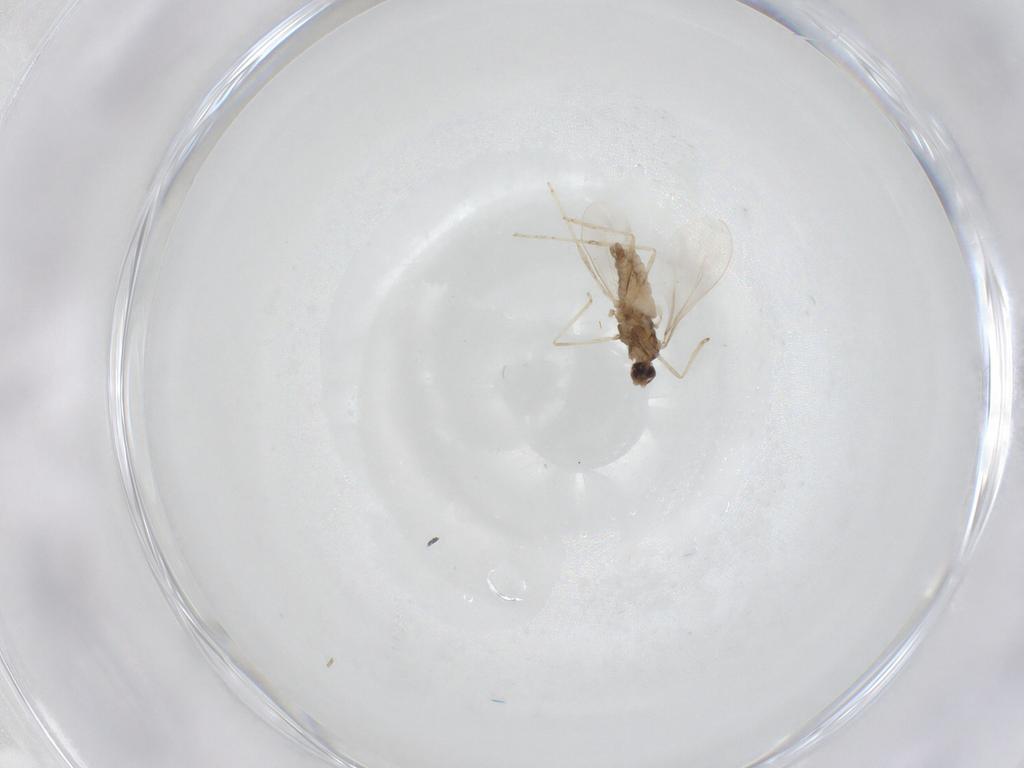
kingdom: Animalia
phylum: Arthropoda
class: Insecta
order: Diptera
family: Cecidomyiidae
